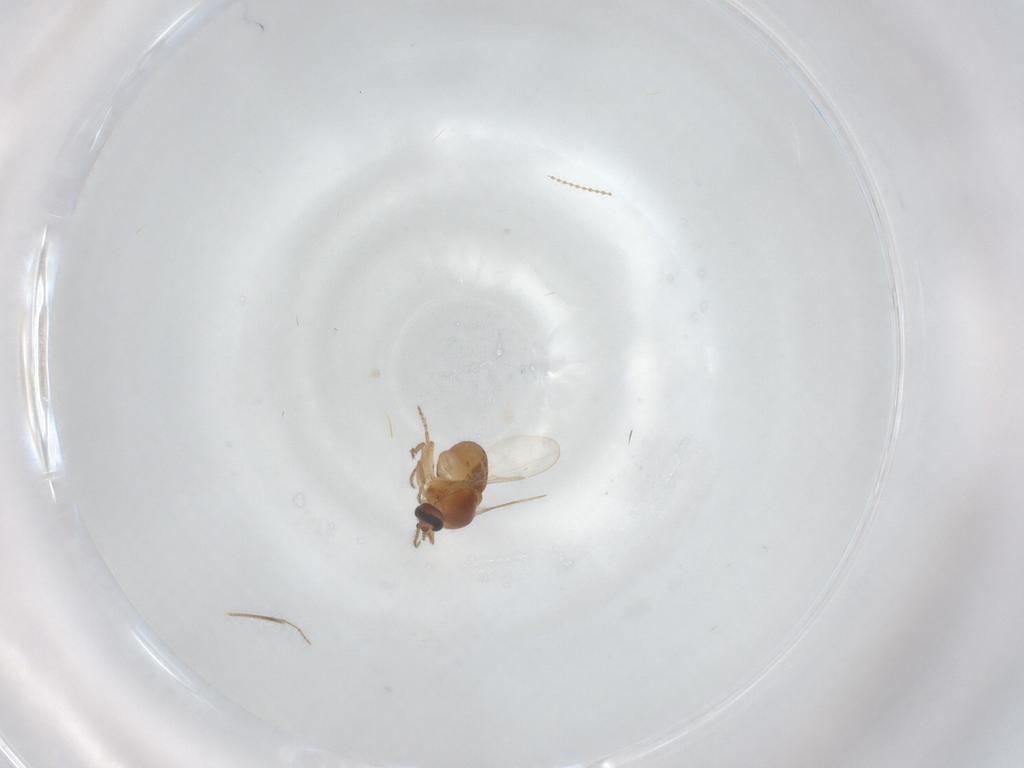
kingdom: Animalia
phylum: Arthropoda
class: Insecta
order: Diptera
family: Ceratopogonidae
